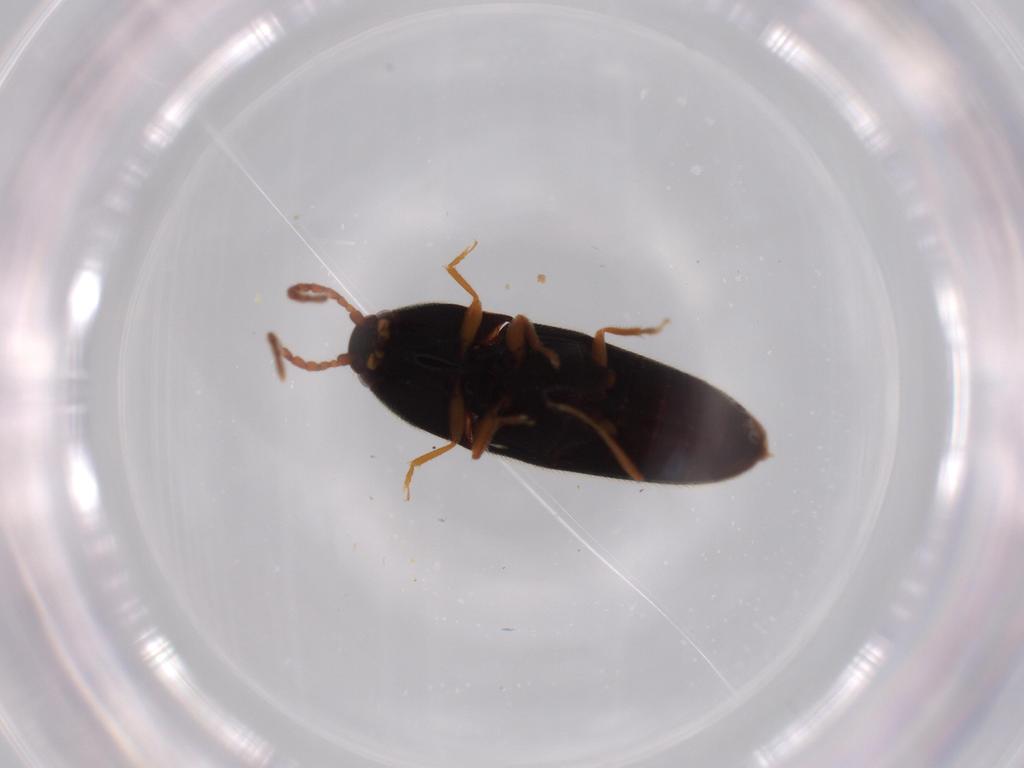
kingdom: Animalia
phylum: Arthropoda
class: Insecta
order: Coleoptera
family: Elateridae
